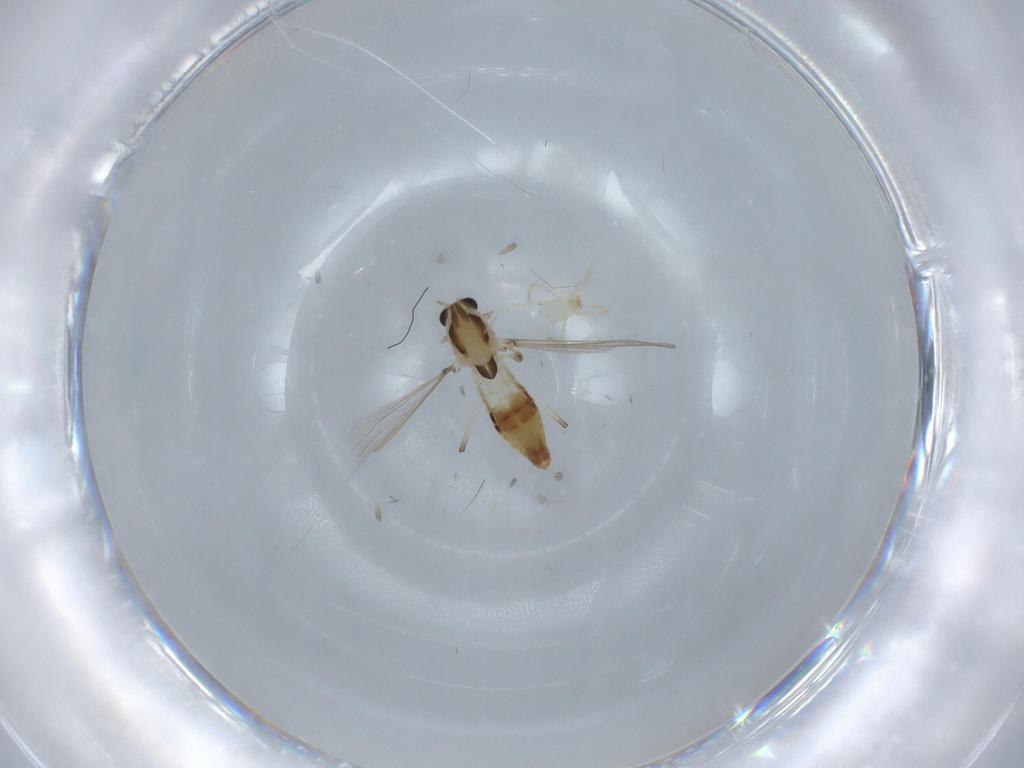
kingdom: Animalia
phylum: Arthropoda
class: Insecta
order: Diptera
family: Chironomidae
